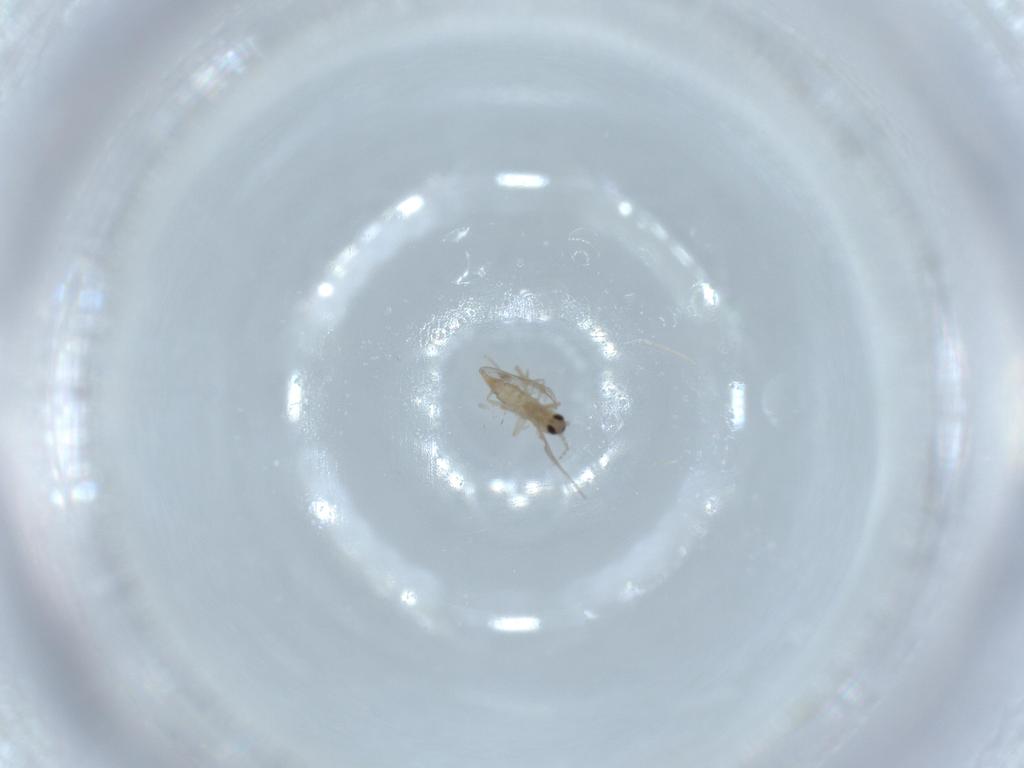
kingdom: Animalia
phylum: Arthropoda
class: Insecta
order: Diptera
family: Cecidomyiidae
